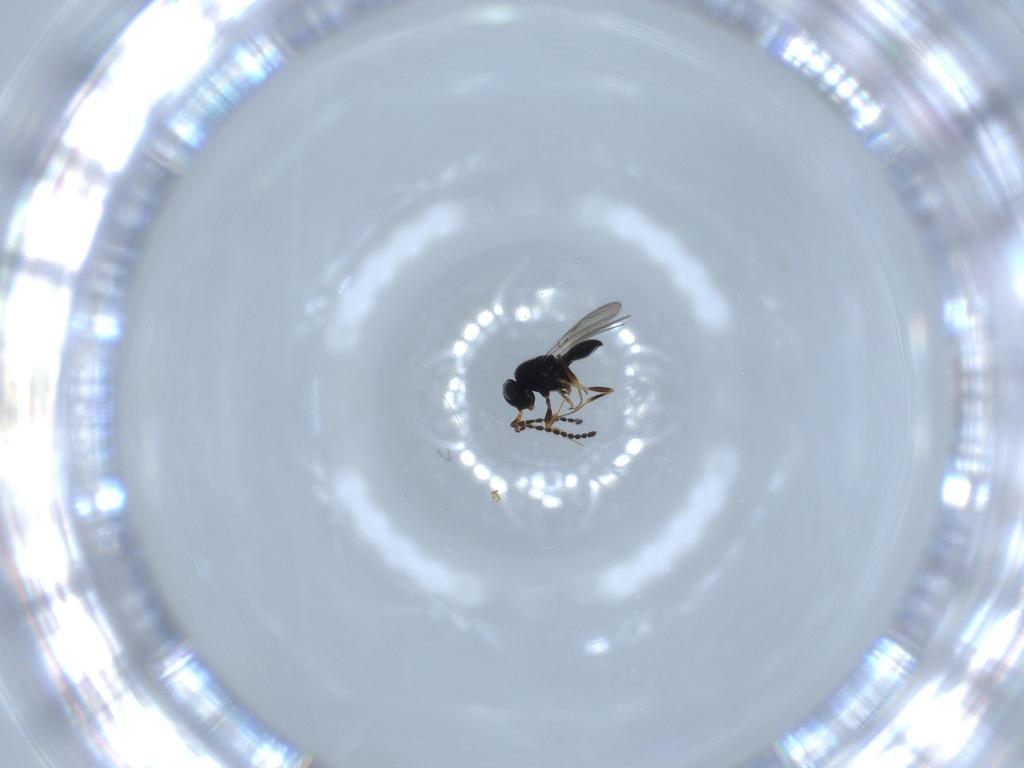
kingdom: Animalia
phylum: Arthropoda
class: Insecta
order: Hymenoptera
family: Scelionidae
